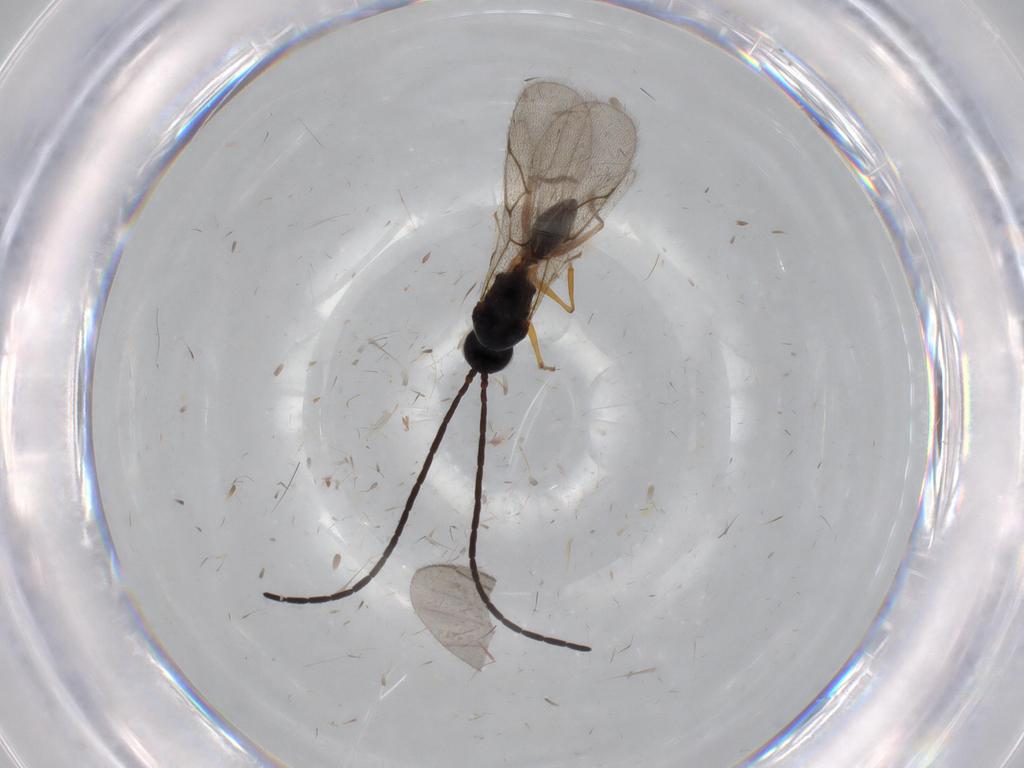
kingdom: Animalia
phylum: Arthropoda
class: Insecta
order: Hymenoptera
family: Figitidae
